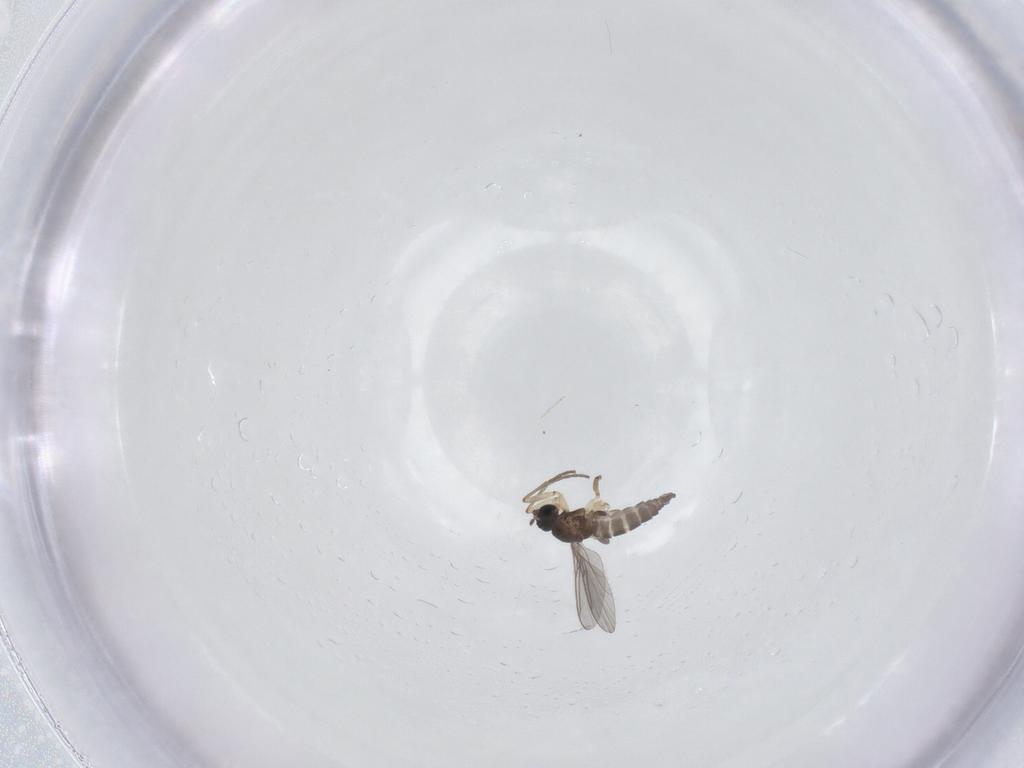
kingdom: Animalia
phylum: Arthropoda
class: Insecta
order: Diptera
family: Sciaridae
